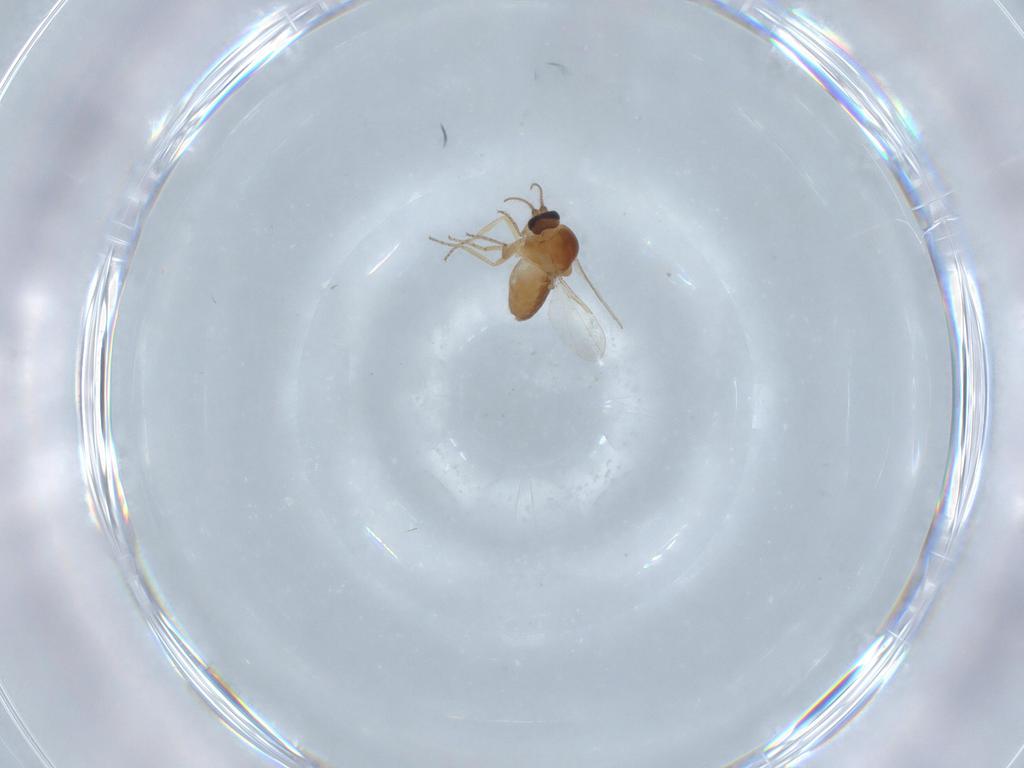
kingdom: Animalia
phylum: Arthropoda
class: Insecta
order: Diptera
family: Ceratopogonidae
